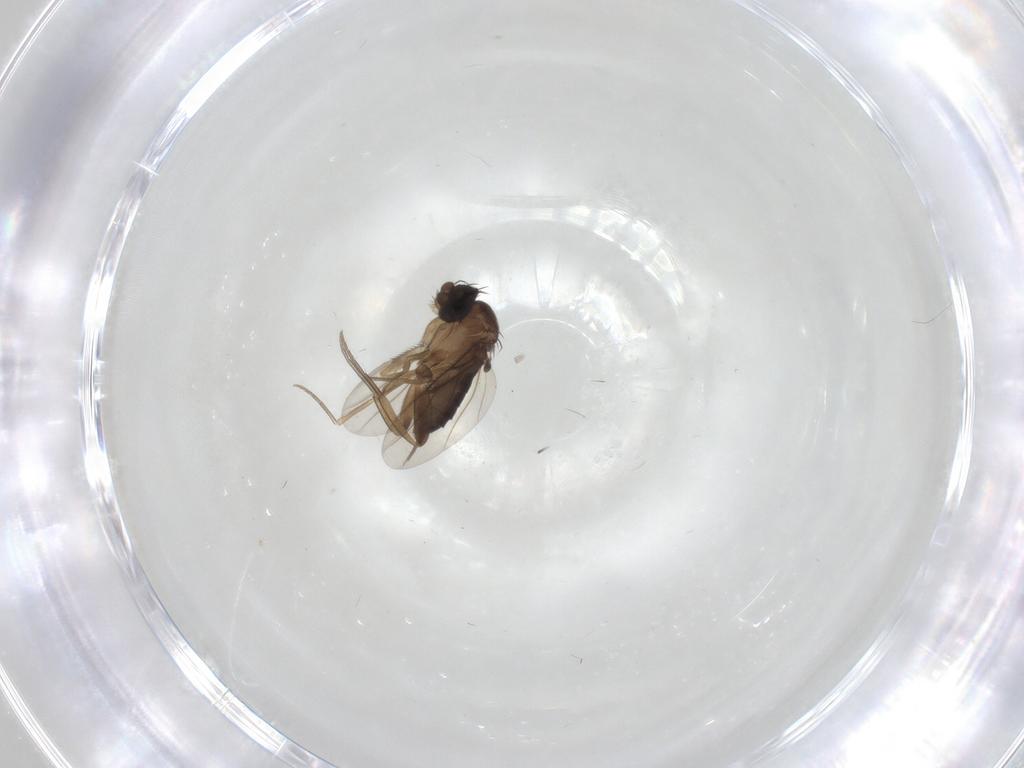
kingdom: Animalia
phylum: Arthropoda
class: Insecta
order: Diptera
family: Phoridae
